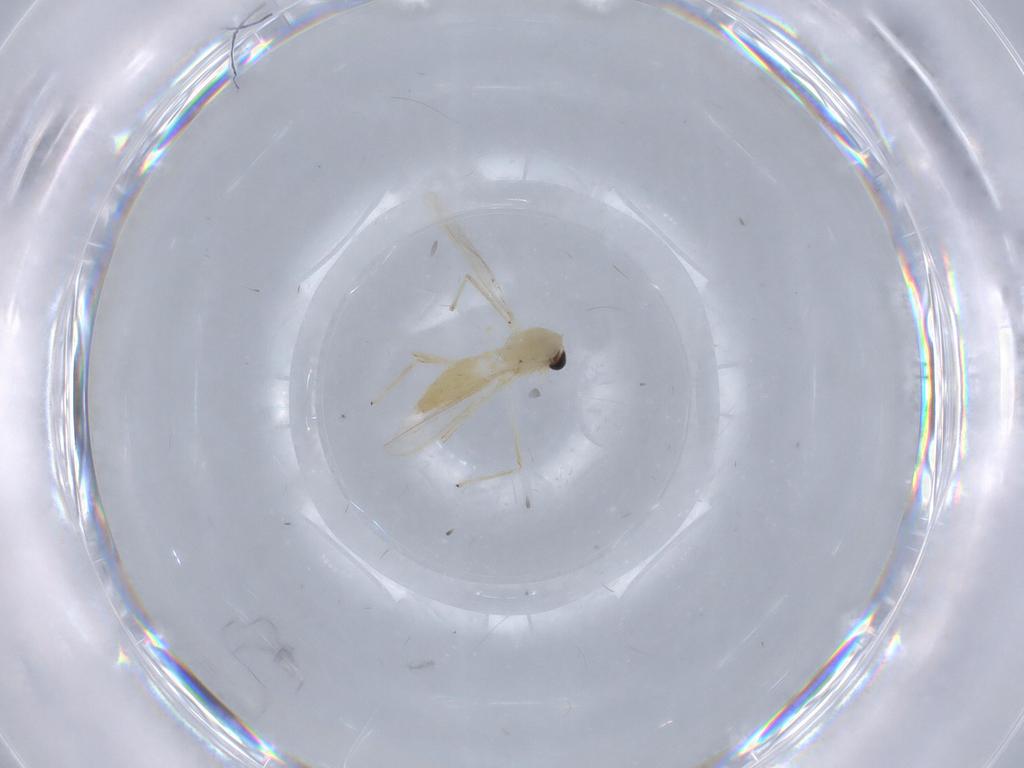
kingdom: Animalia
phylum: Arthropoda
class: Insecta
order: Diptera
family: Chironomidae
